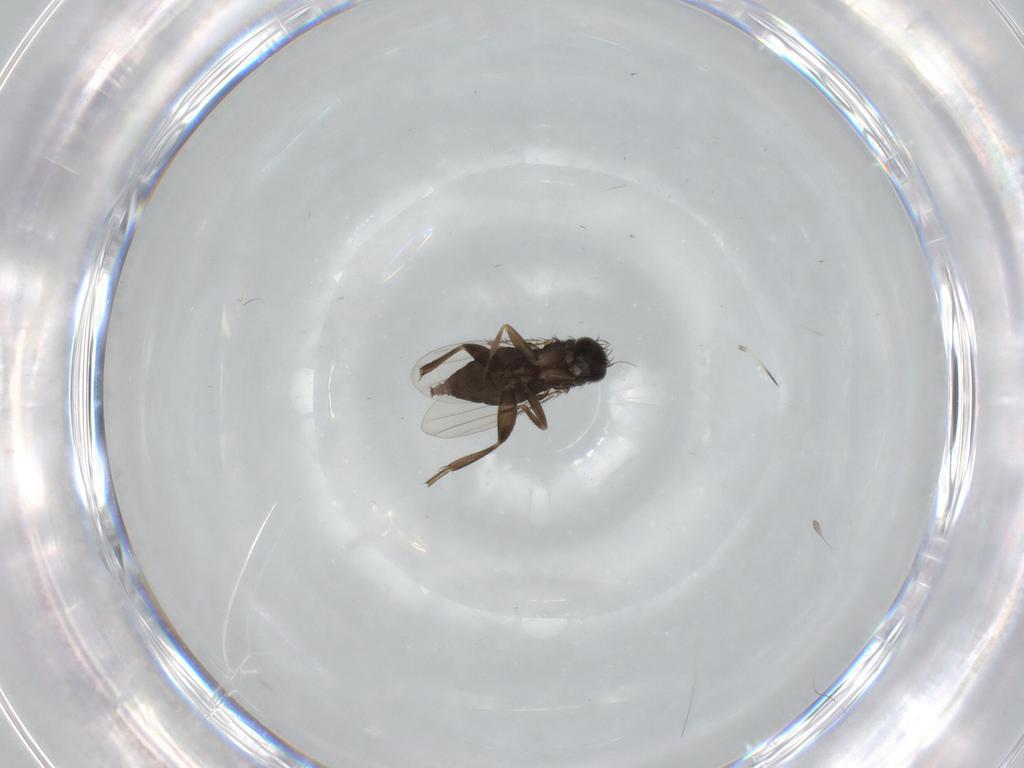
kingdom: Animalia
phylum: Arthropoda
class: Insecta
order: Diptera
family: Phoridae
